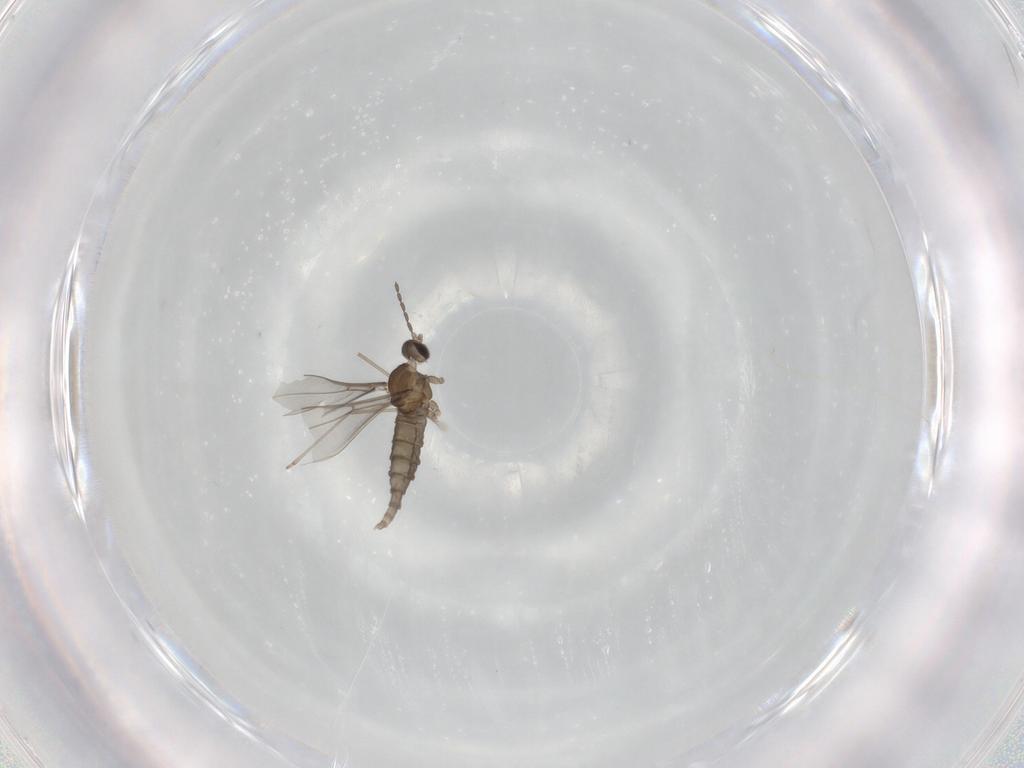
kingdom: Animalia
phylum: Arthropoda
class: Insecta
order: Diptera
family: Cecidomyiidae
